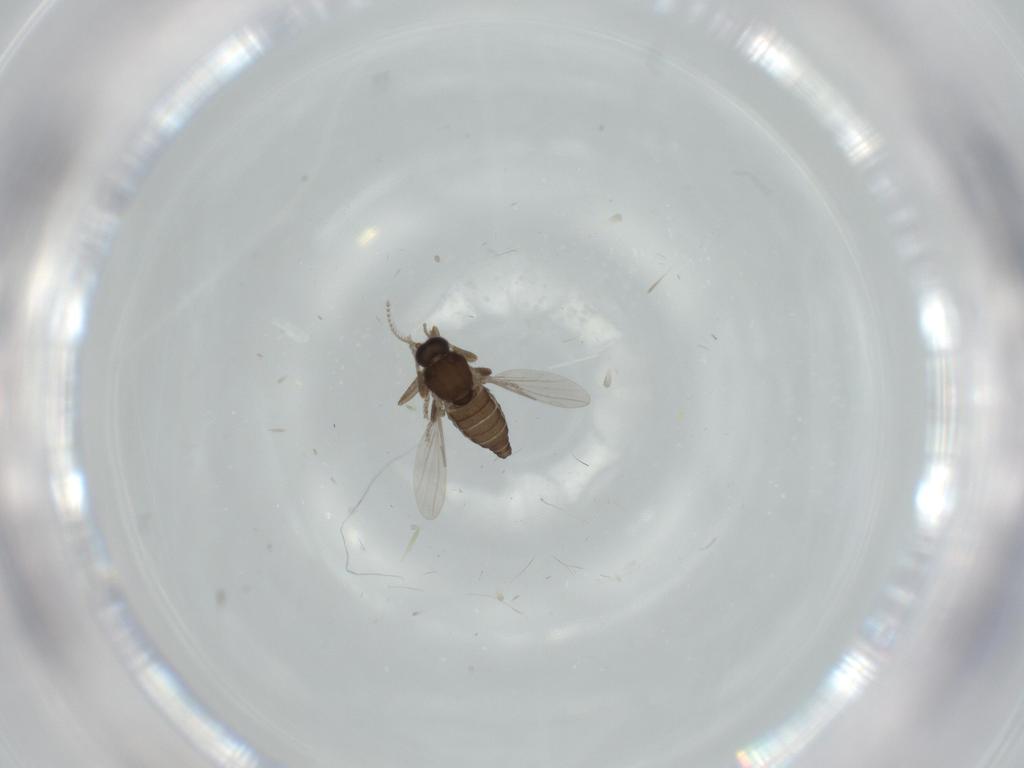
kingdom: Animalia
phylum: Arthropoda
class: Insecta
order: Diptera
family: Ceratopogonidae
